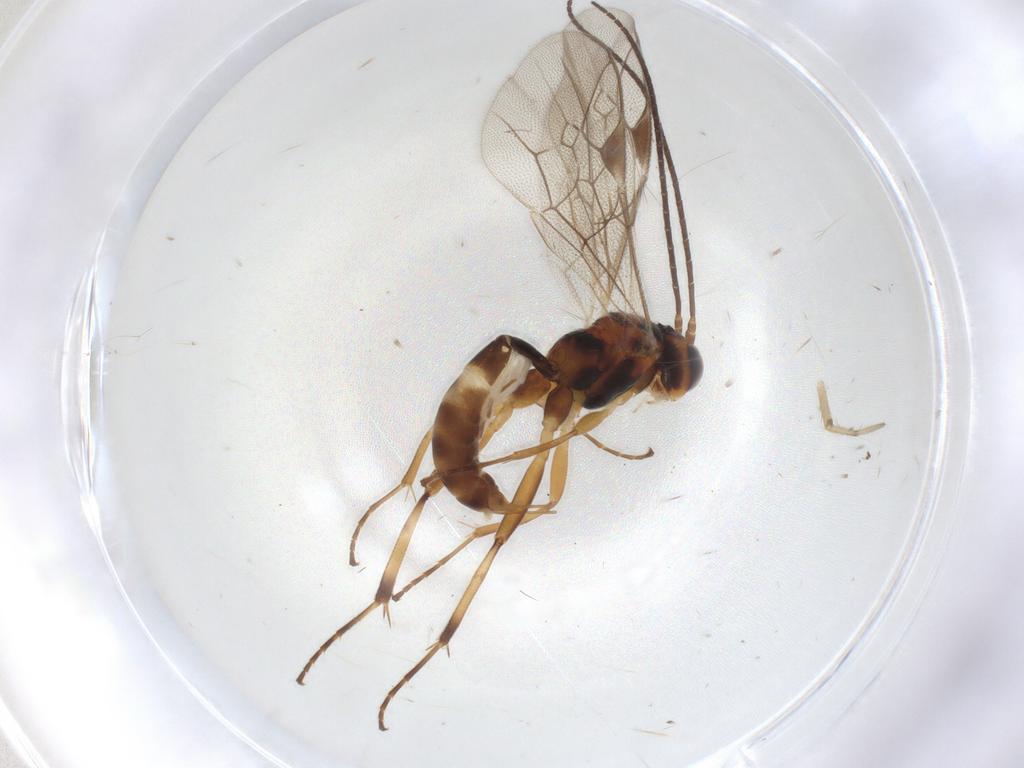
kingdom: Animalia
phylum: Arthropoda
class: Insecta
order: Hymenoptera
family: Ichneumonidae
